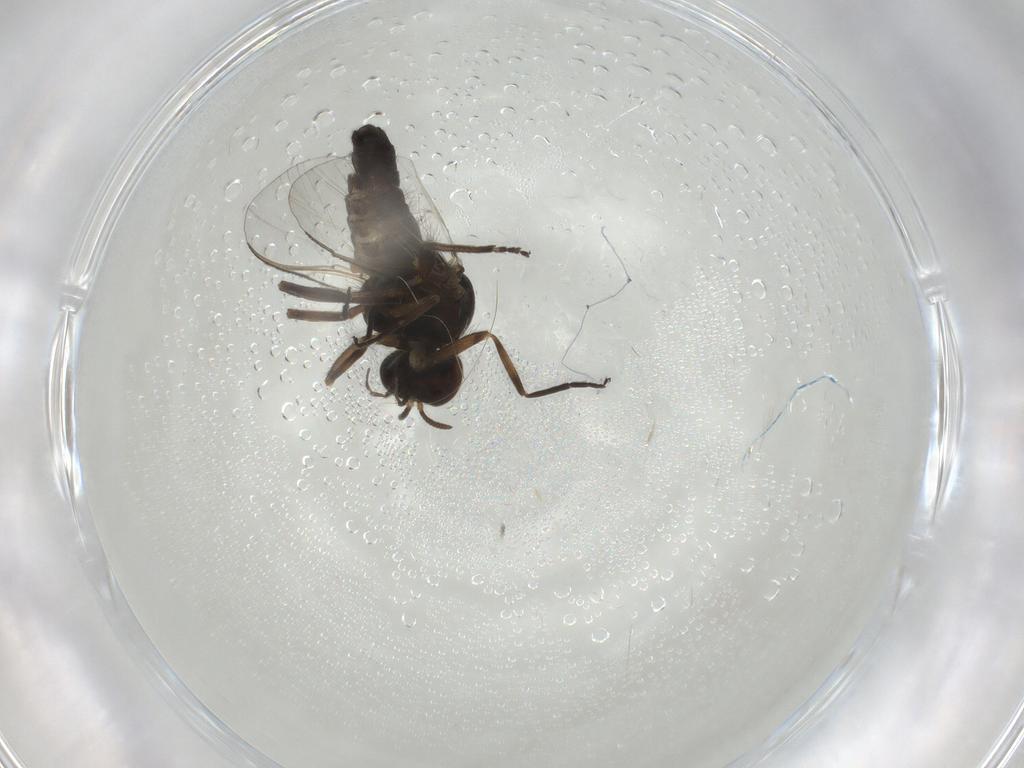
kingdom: Animalia
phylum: Arthropoda
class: Insecta
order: Diptera
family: Chironomidae
